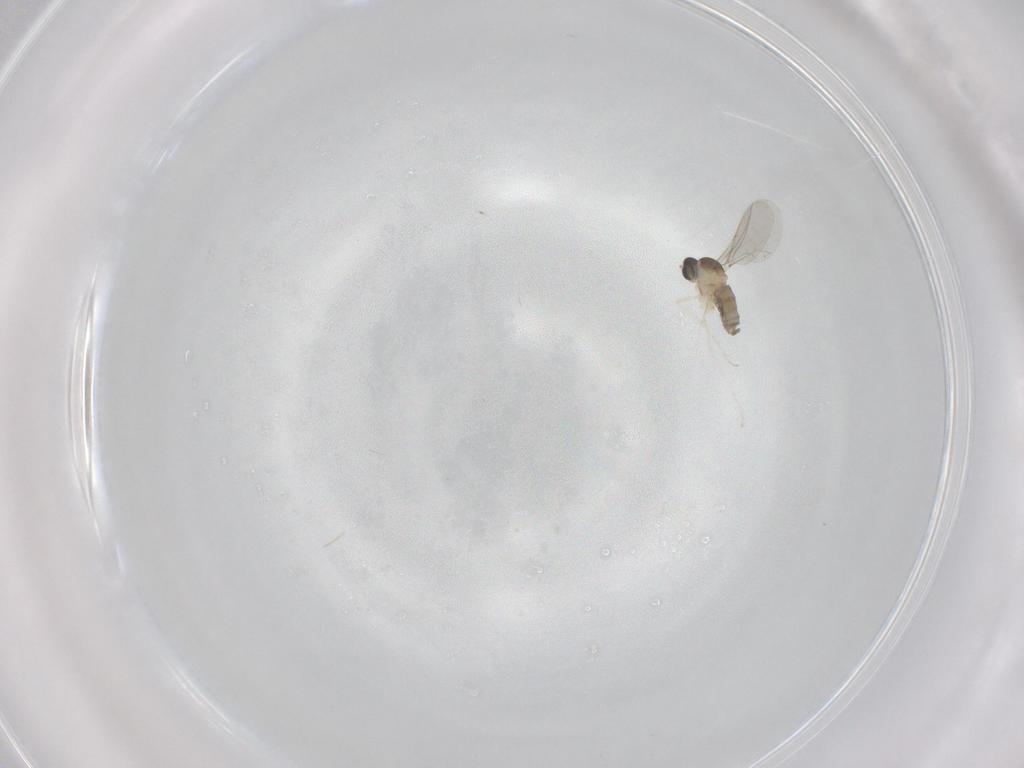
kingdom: Animalia
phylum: Arthropoda
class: Insecta
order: Diptera
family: Cecidomyiidae
